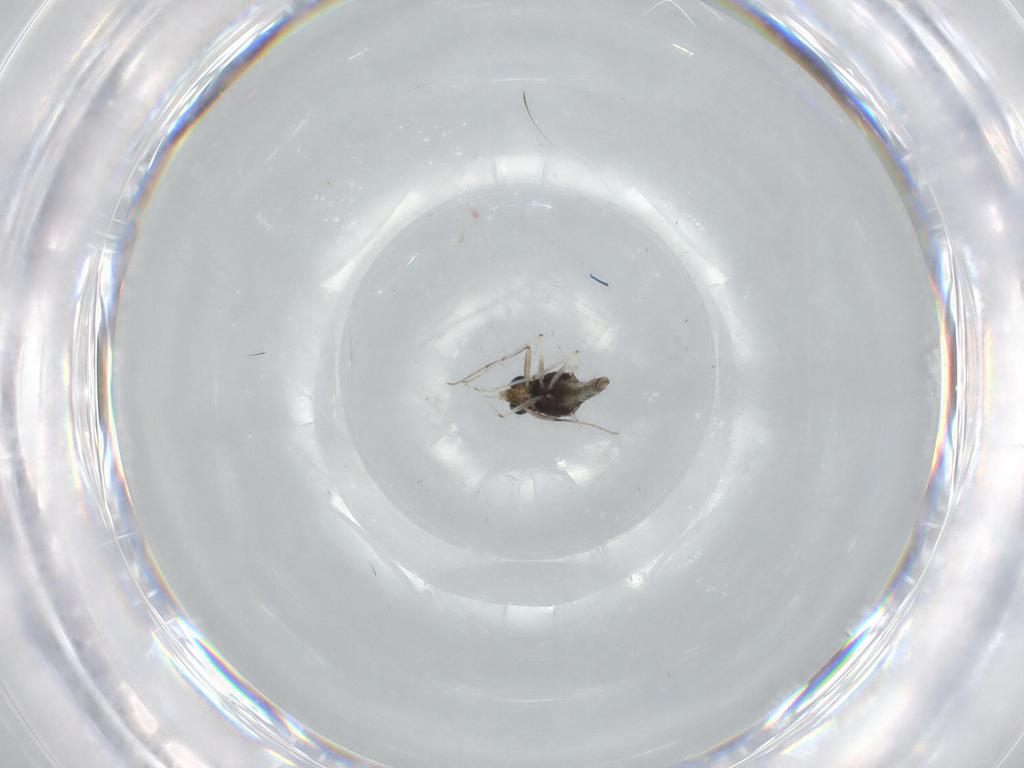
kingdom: Animalia
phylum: Arthropoda
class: Insecta
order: Diptera
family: Chironomidae
